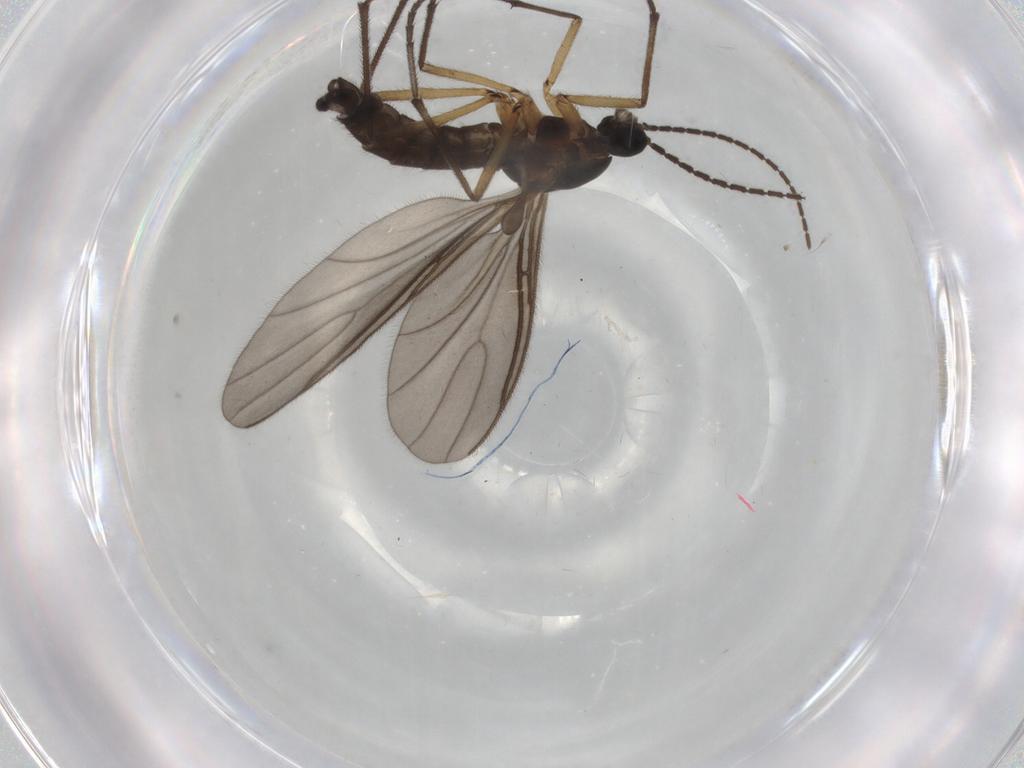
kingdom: Animalia
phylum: Arthropoda
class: Insecta
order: Diptera
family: Sciaridae
